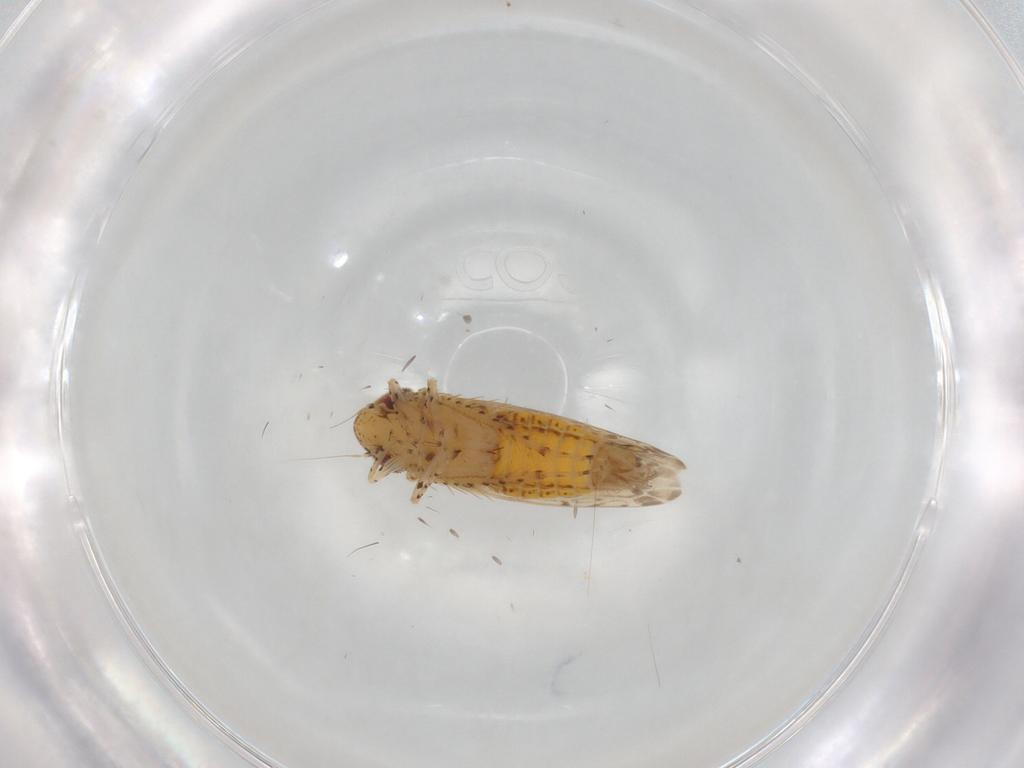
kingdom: Animalia
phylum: Arthropoda
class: Insecta
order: Hemiptera
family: Cicadellidae
